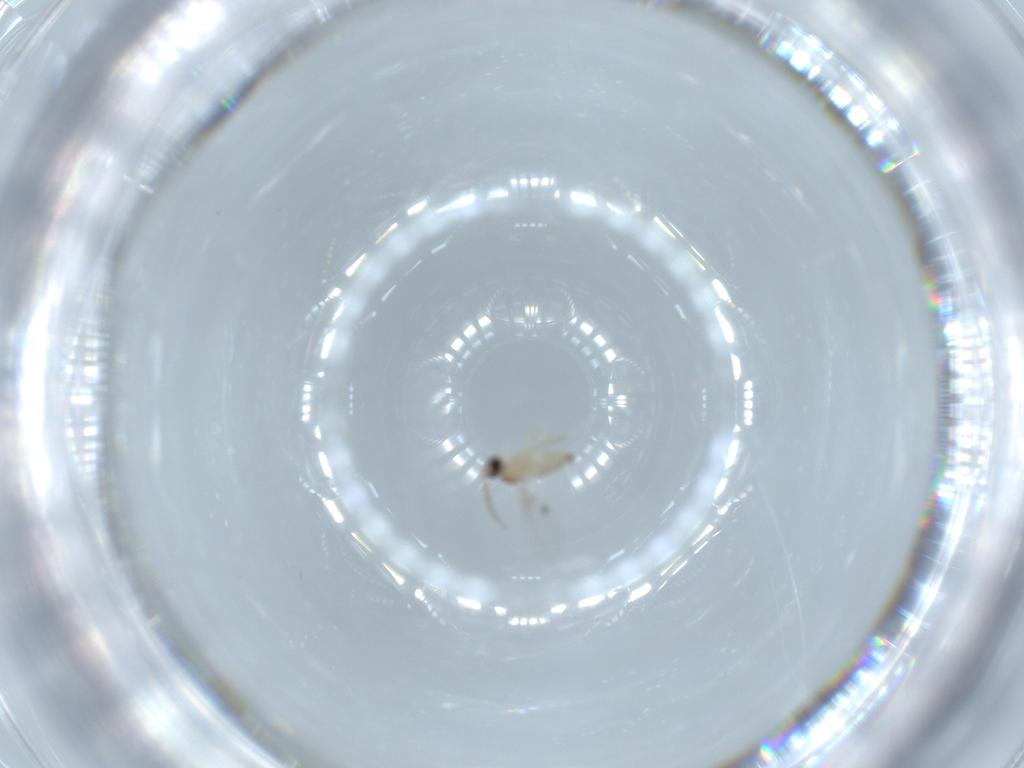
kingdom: Animalia
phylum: Arthropoda
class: Insecta
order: Diptera
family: Cecidomyiidae
